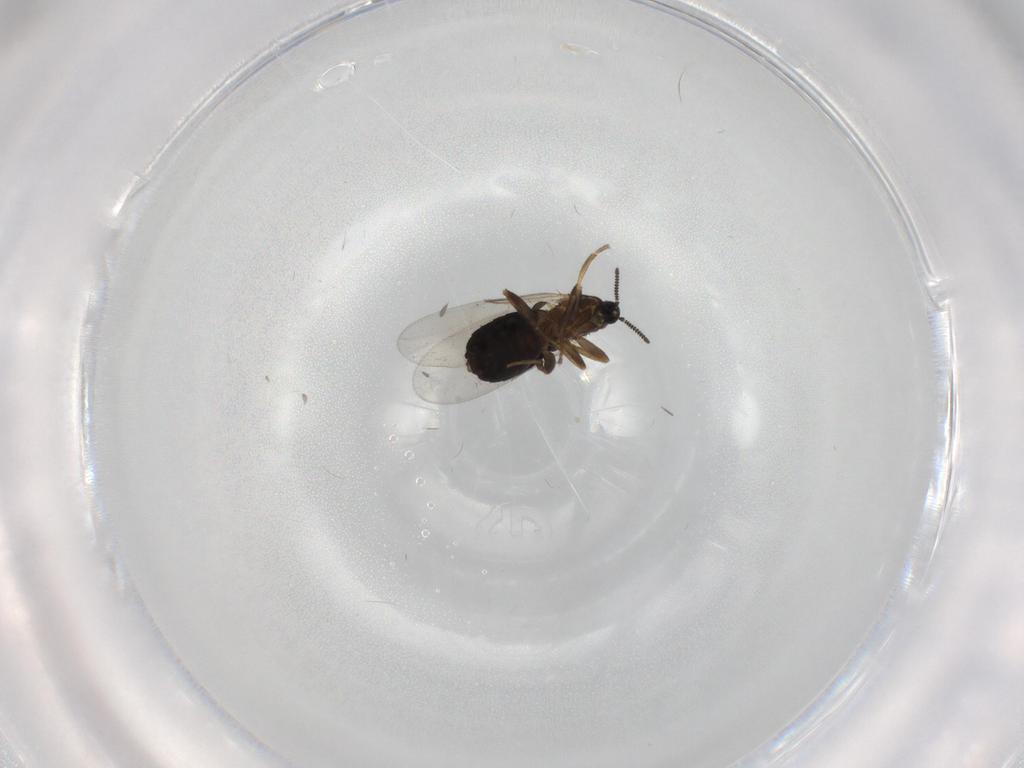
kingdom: Animalia
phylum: Arthropoda
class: Insecta
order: Diptera
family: Scatopsidae
